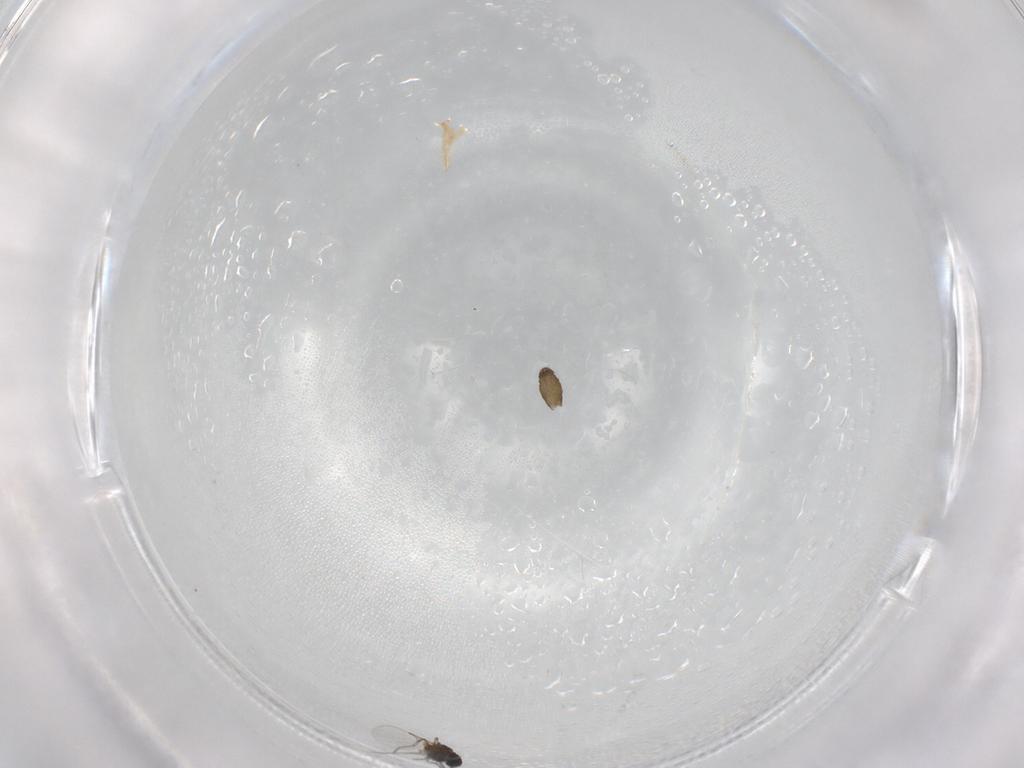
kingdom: Animalia
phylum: Arthropoda
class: Insecta
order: Diptera
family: Ceratopogonidae
